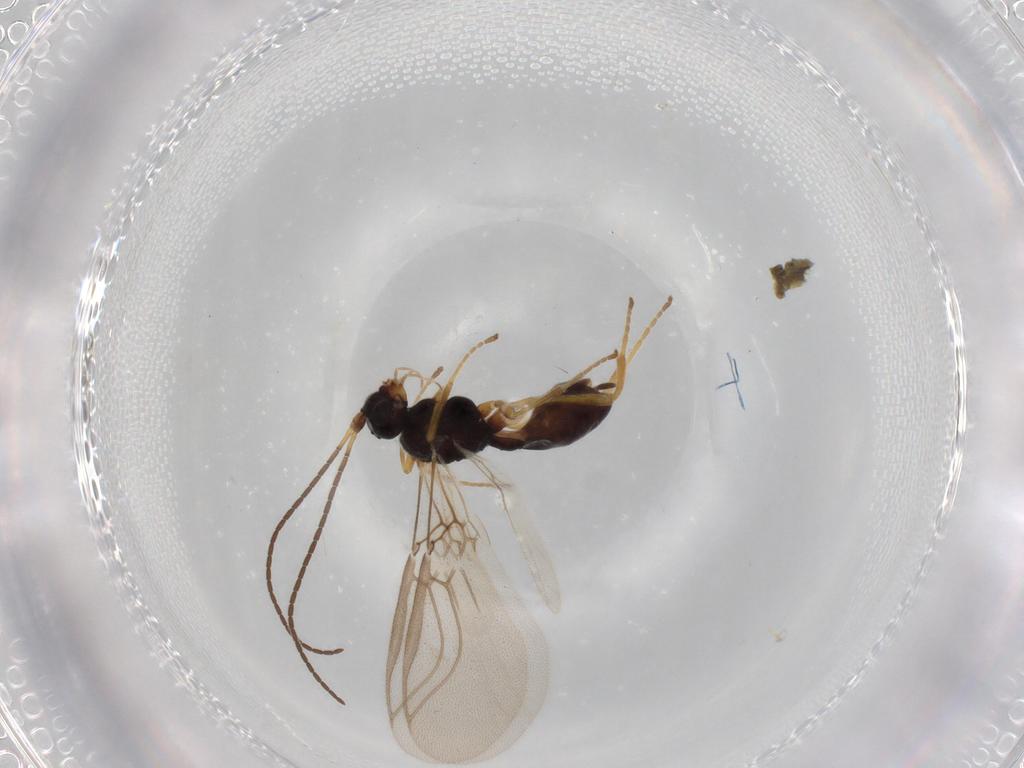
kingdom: Animalia
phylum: Arthropoda
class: Insecta
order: Hymenoptera
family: Braconidae
